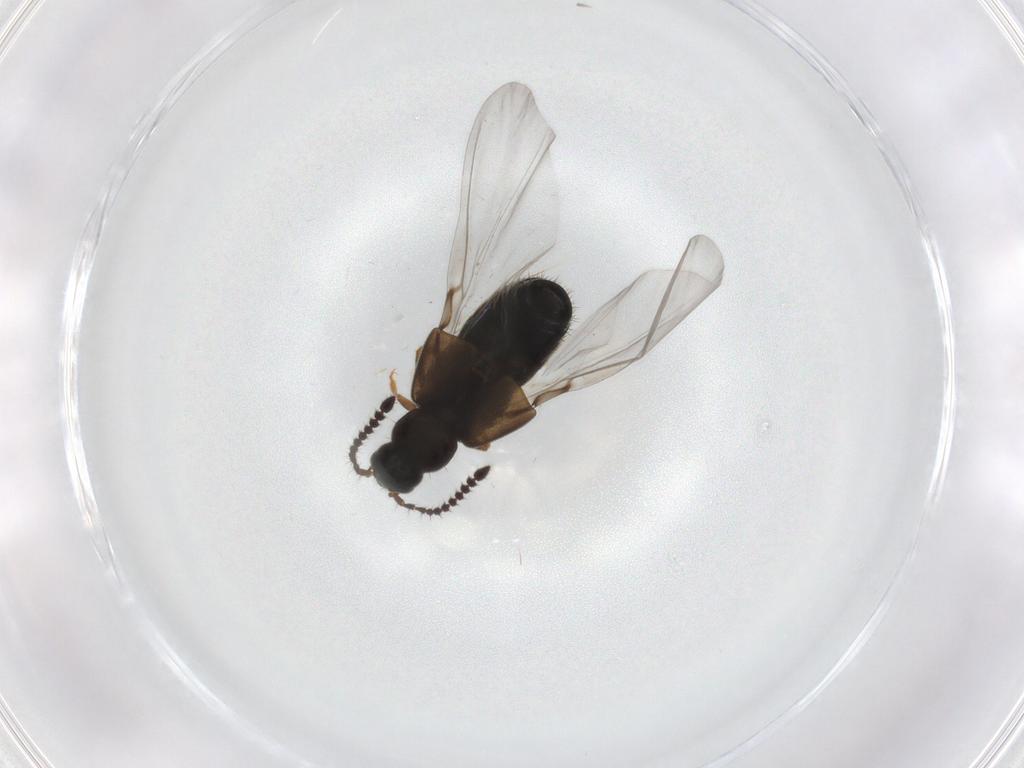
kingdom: Animalia
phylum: Arthropoda
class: Insecta
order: Coleoptera
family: Staphylinidae
